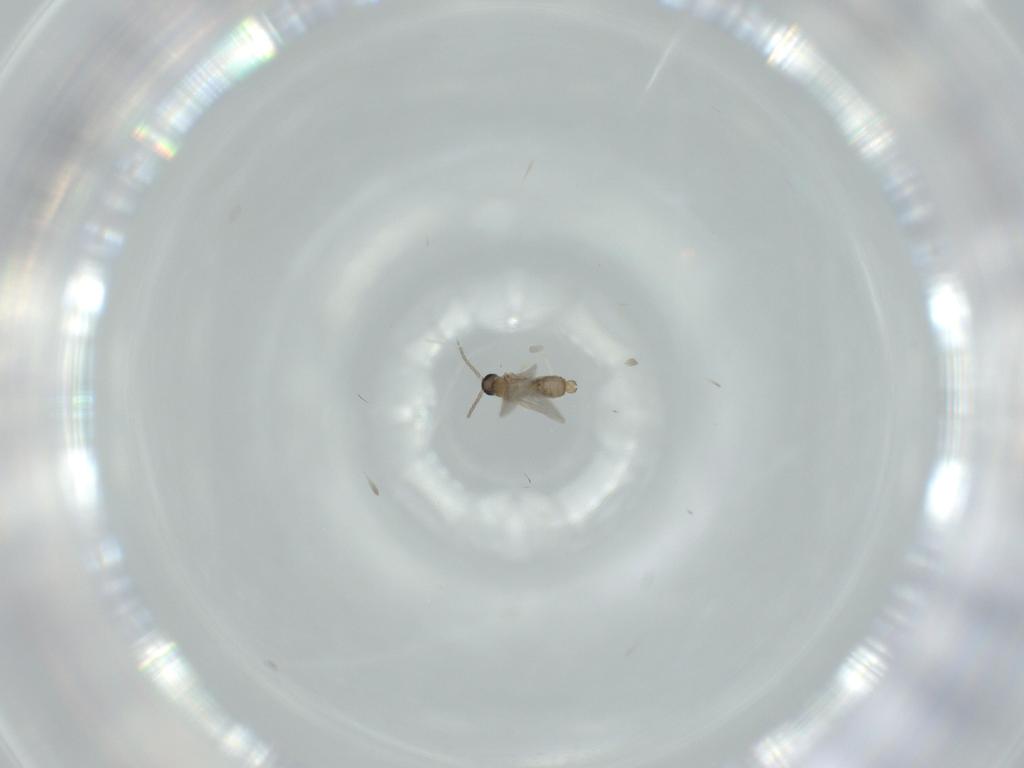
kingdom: Animalia
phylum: Arthropoda
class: Insecta
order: Diptera
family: Cecidomyiidae
